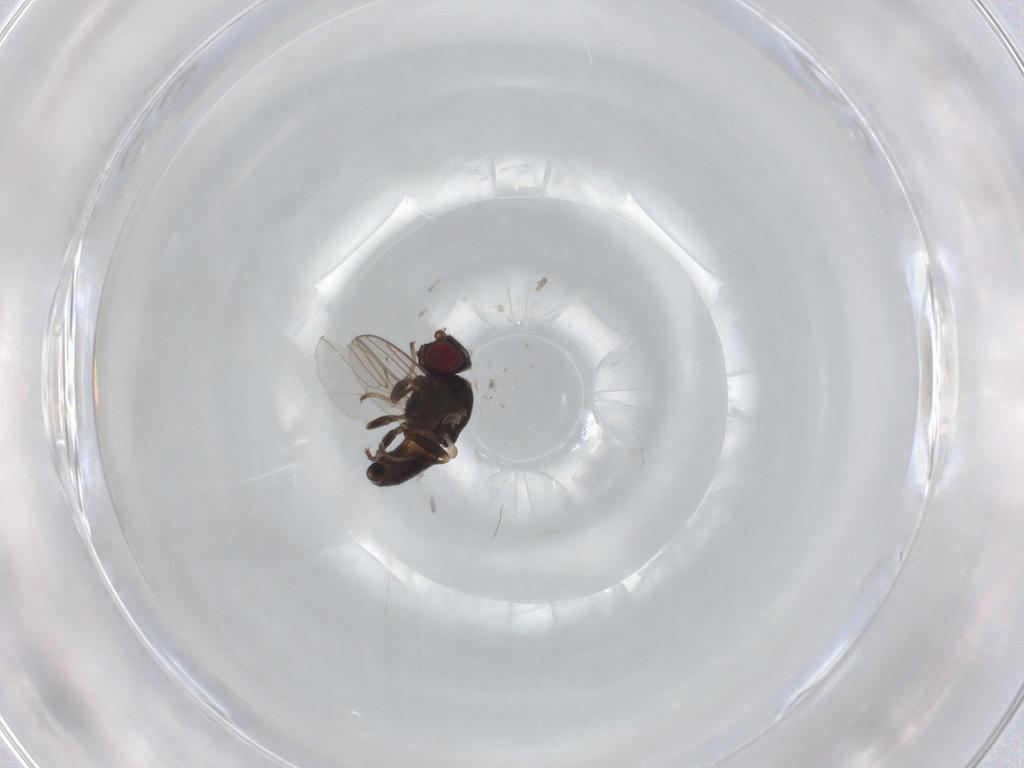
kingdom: Animalia
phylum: Arthropoda
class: Insecta
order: Diptera
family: Chloropidae
